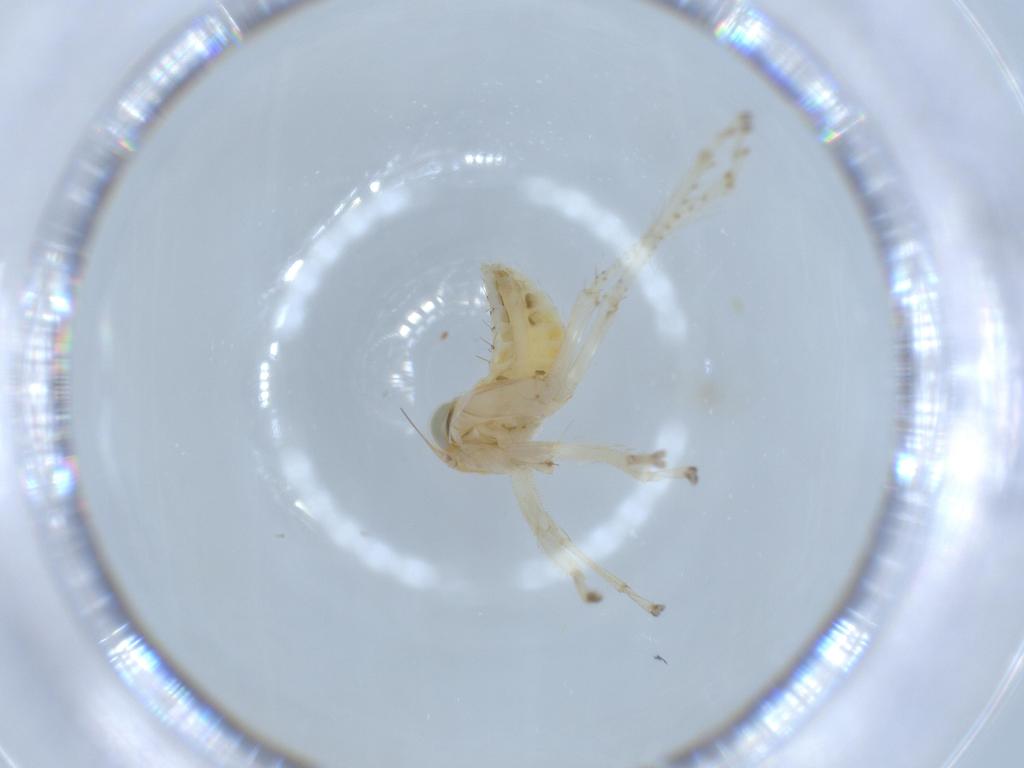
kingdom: Animalia
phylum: Arthropoda
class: Insecta
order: Hemiptera
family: Cicadellidae
